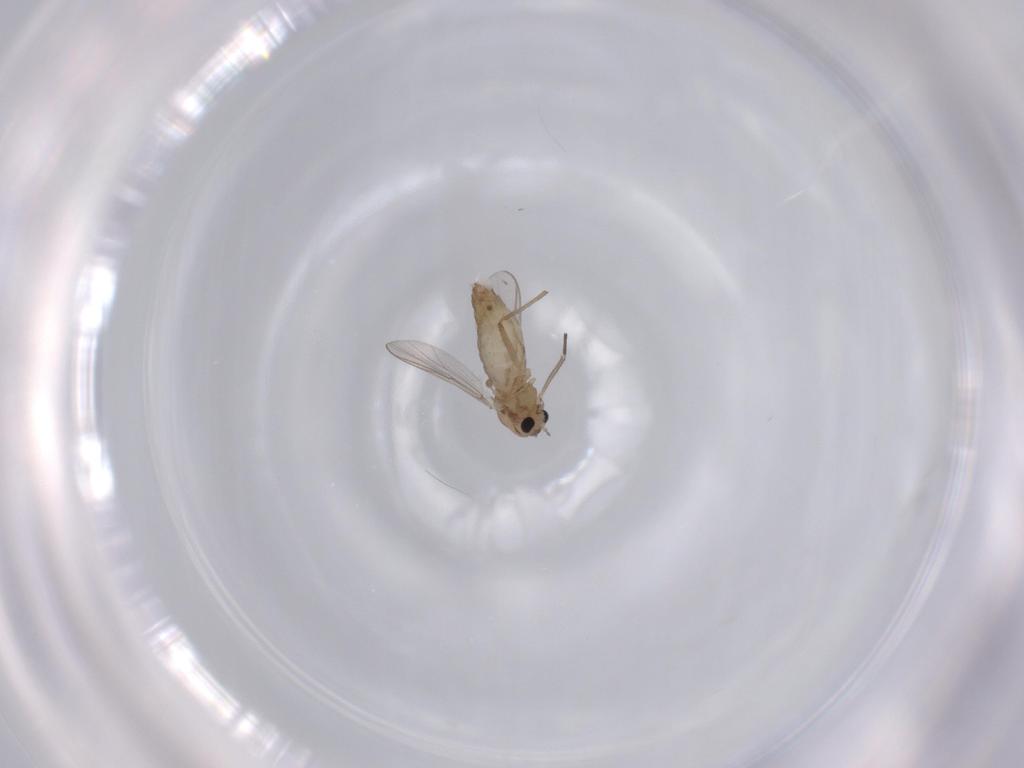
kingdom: Animalia
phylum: Arthropoda
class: Insecta
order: Diptera
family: Chironomidae
